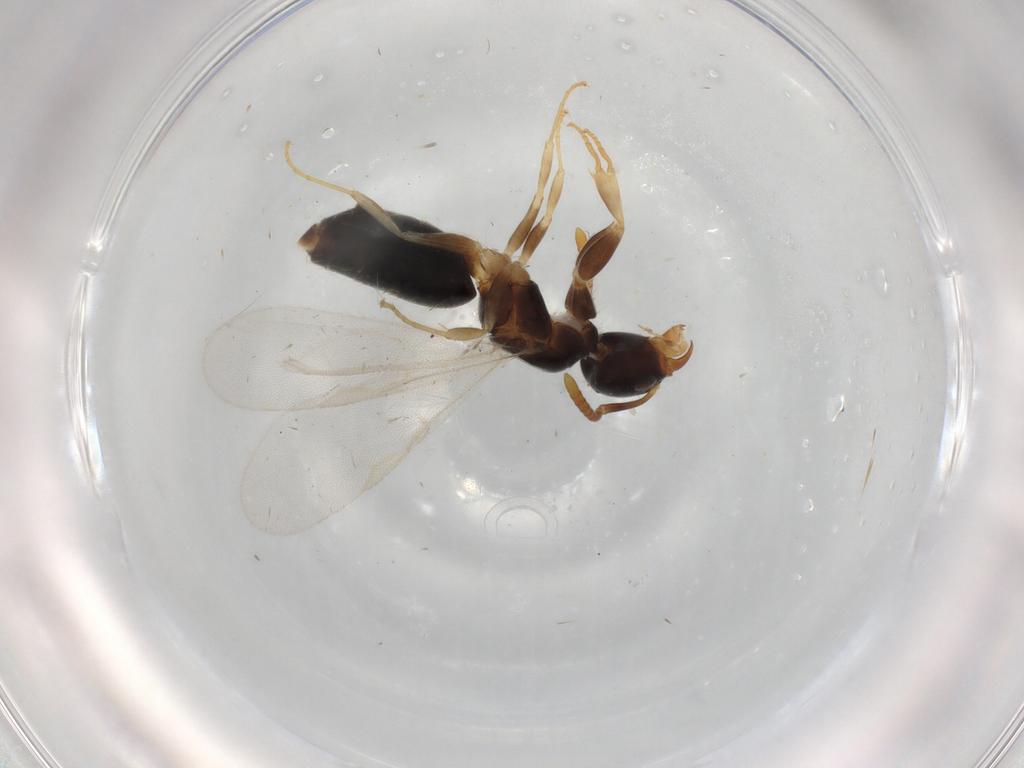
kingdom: Animalia
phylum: Arthropoda
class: Insecta
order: Hymenoptera
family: Formicidae
